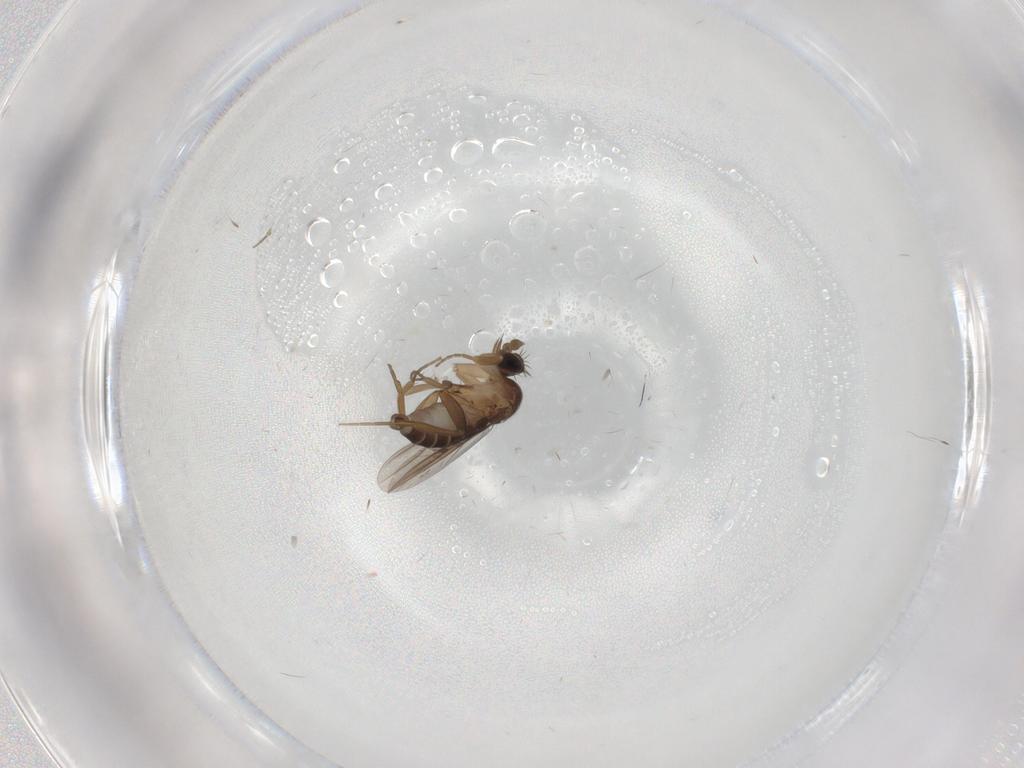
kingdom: Animalia
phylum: Arthropoda
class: Insecta
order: Diptera
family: Phoridae
